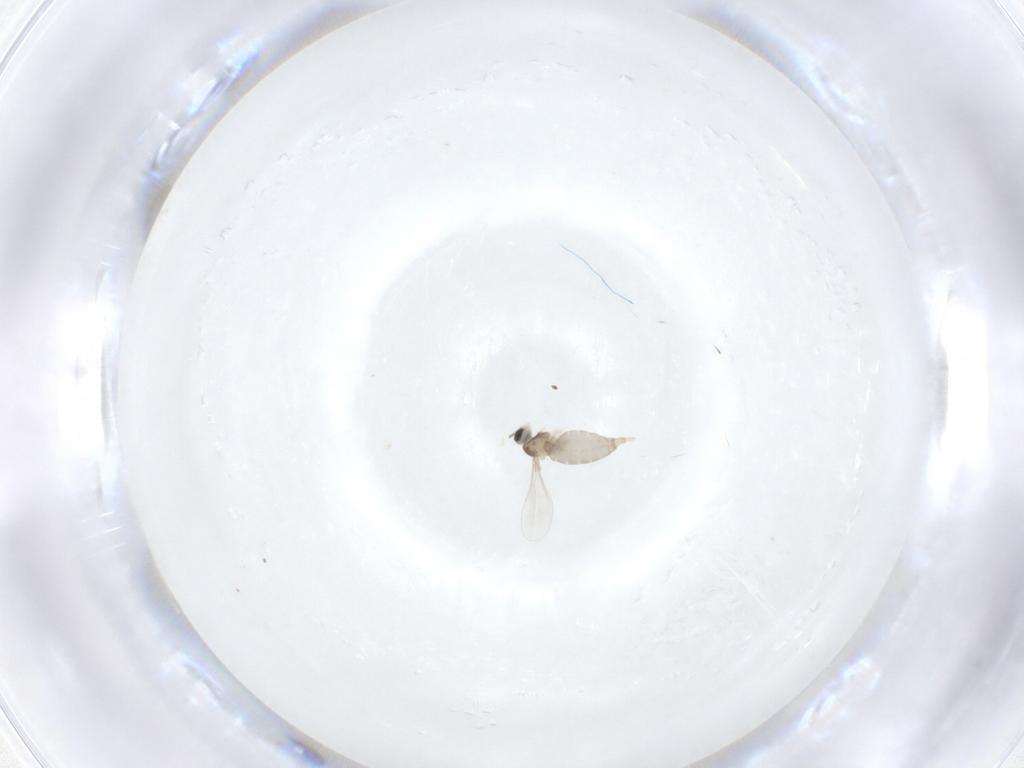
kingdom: Animalia
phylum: Arthropoda
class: Insecta
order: Diptera
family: Cecidomyiidae
